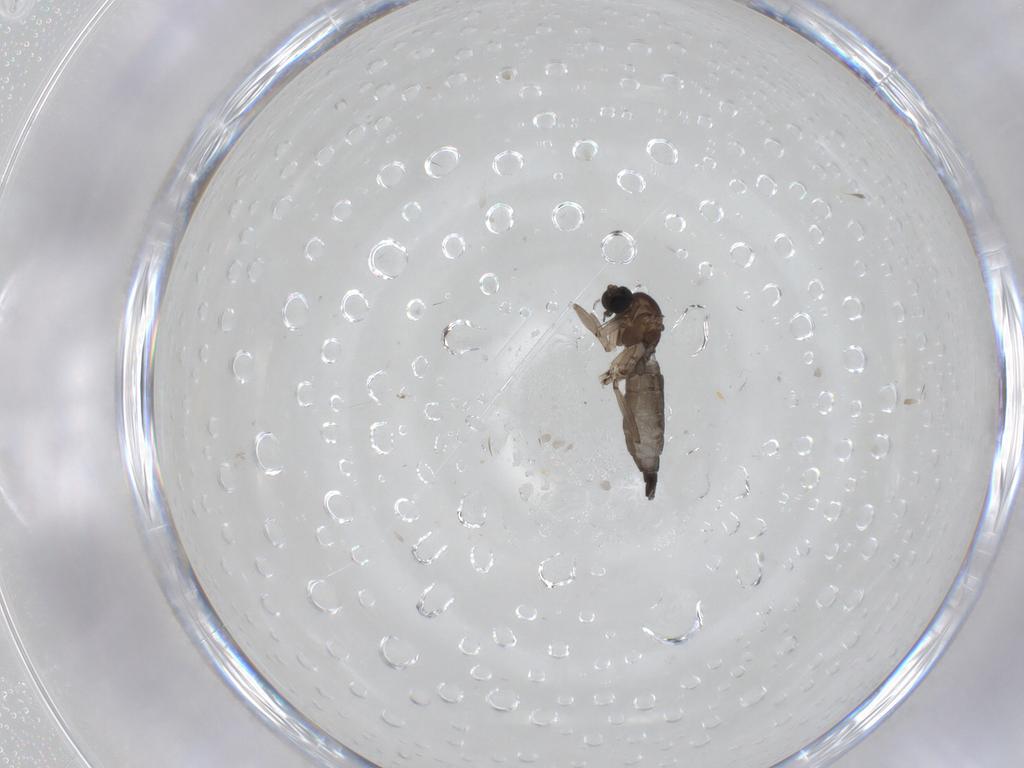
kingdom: Animalia
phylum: Arthropoda
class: Insecta
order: Diptera
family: Sciaridae
